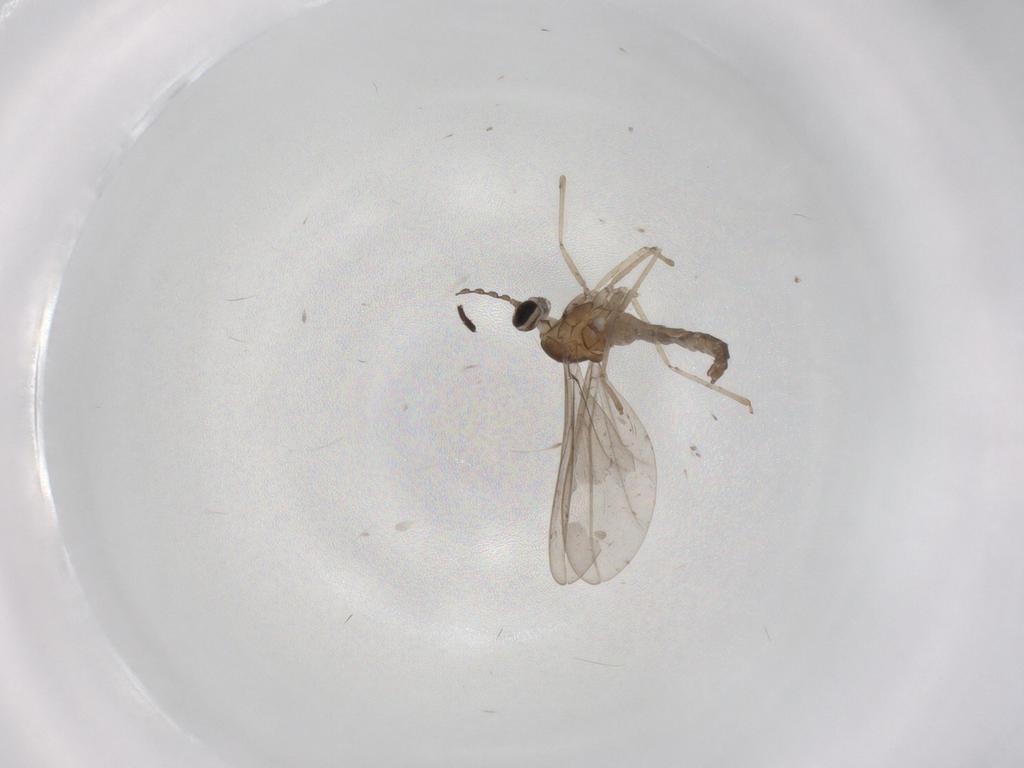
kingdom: Animalia
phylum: Arthropoda
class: Insecta
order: Diptera
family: Cecidomyiidae
